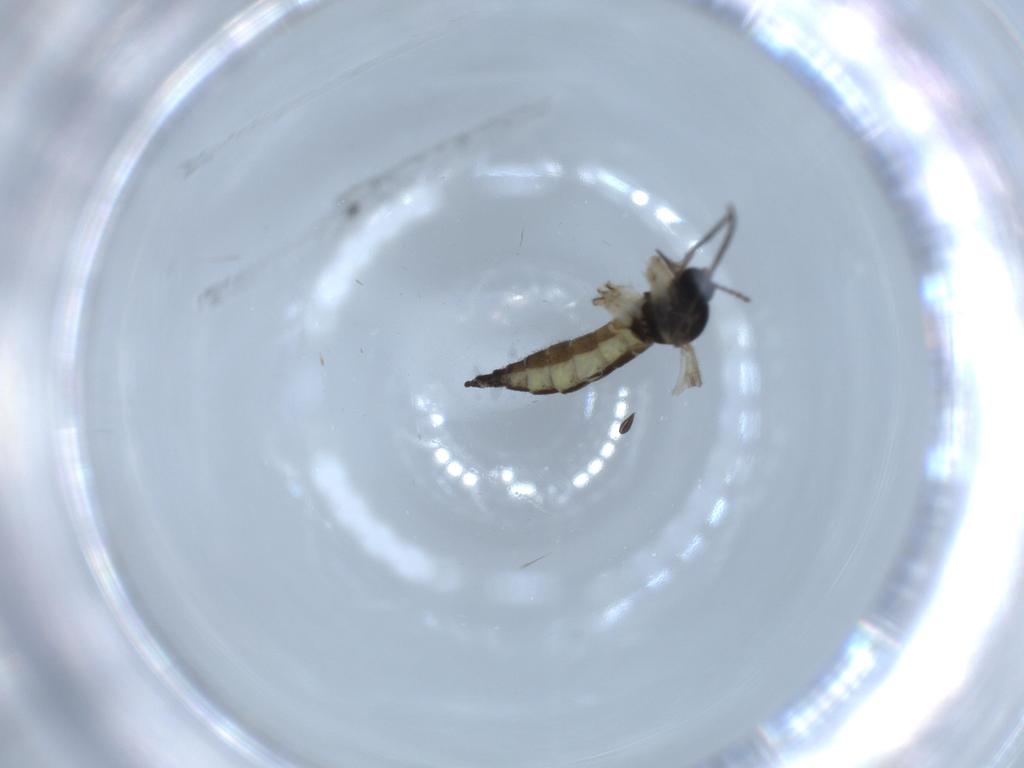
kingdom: Animalia
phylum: Arthropoda
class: Insecta
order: Diptera
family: Sciaridae
